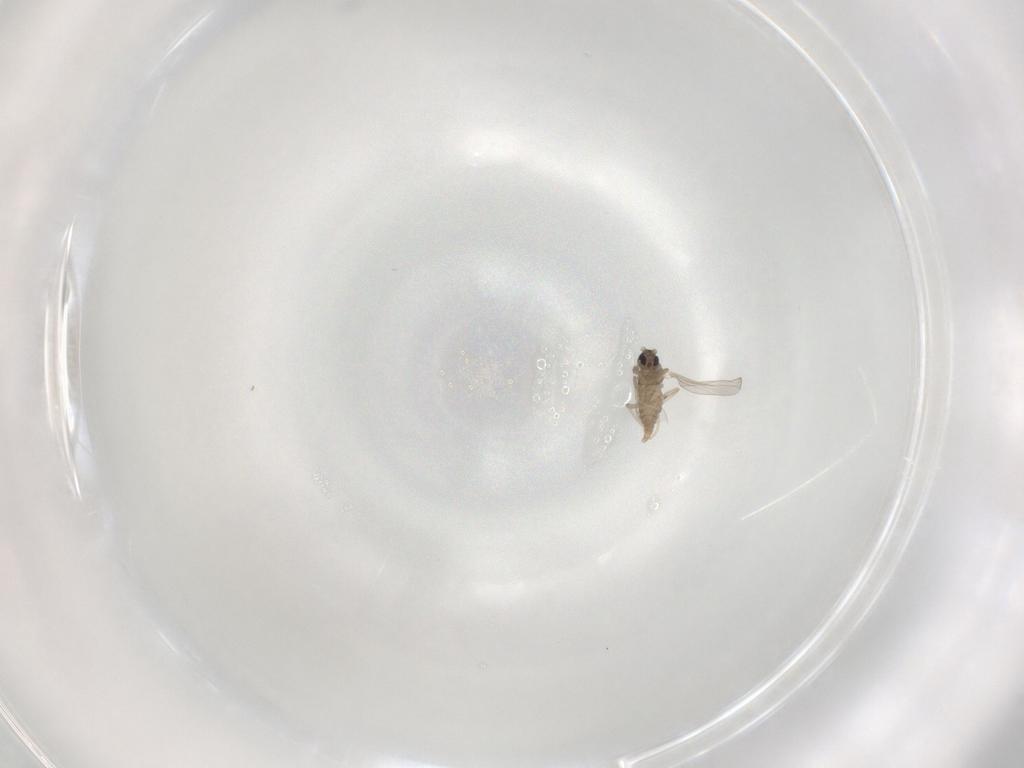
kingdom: Animalia
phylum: Arthropoda
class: Insecta
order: Diptera
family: Cecidomyiidae
